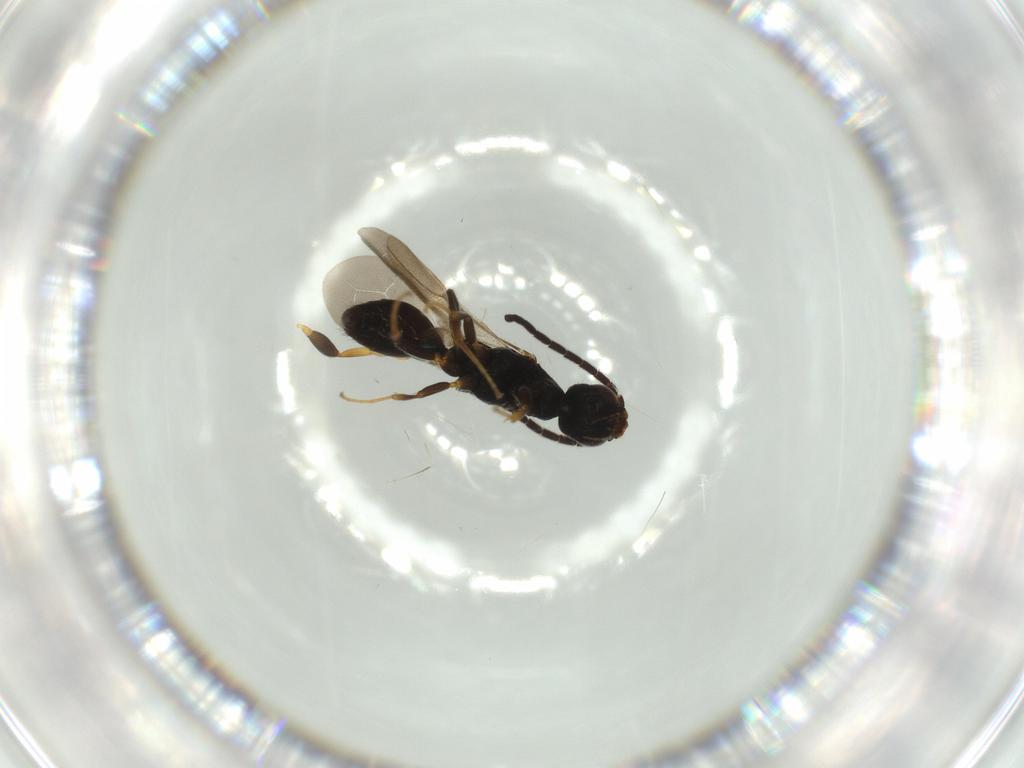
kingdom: Animalia
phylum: Arthropoda
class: Insecta
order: Hymenoptera
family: Bethylidae
